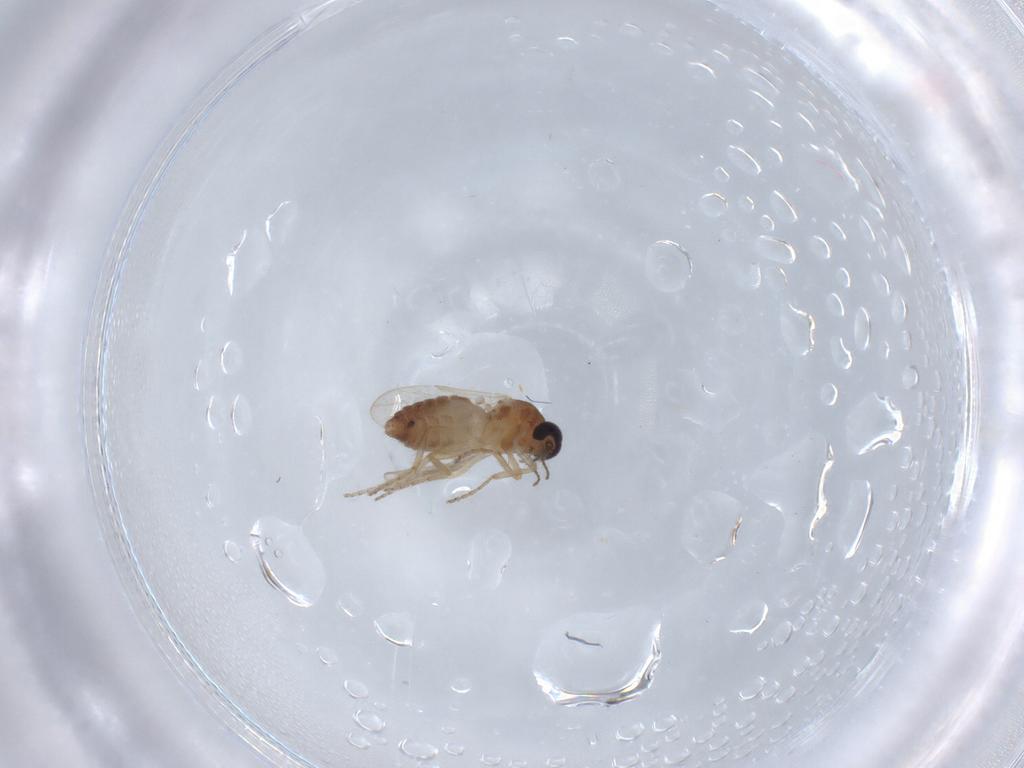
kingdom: Animalia
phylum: Arthropoda
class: Insecta
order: Diptera
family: Ceratopogonidae
